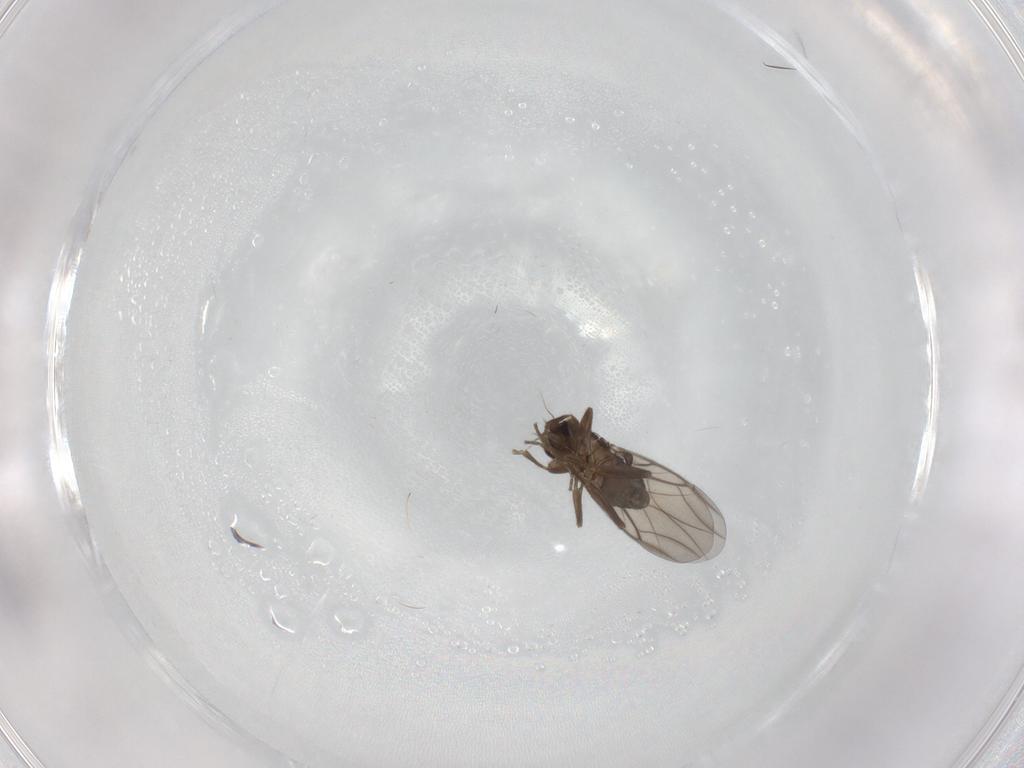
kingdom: Animalia
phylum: Arthropoda
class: Insecta
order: Diptera
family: Phoridae
